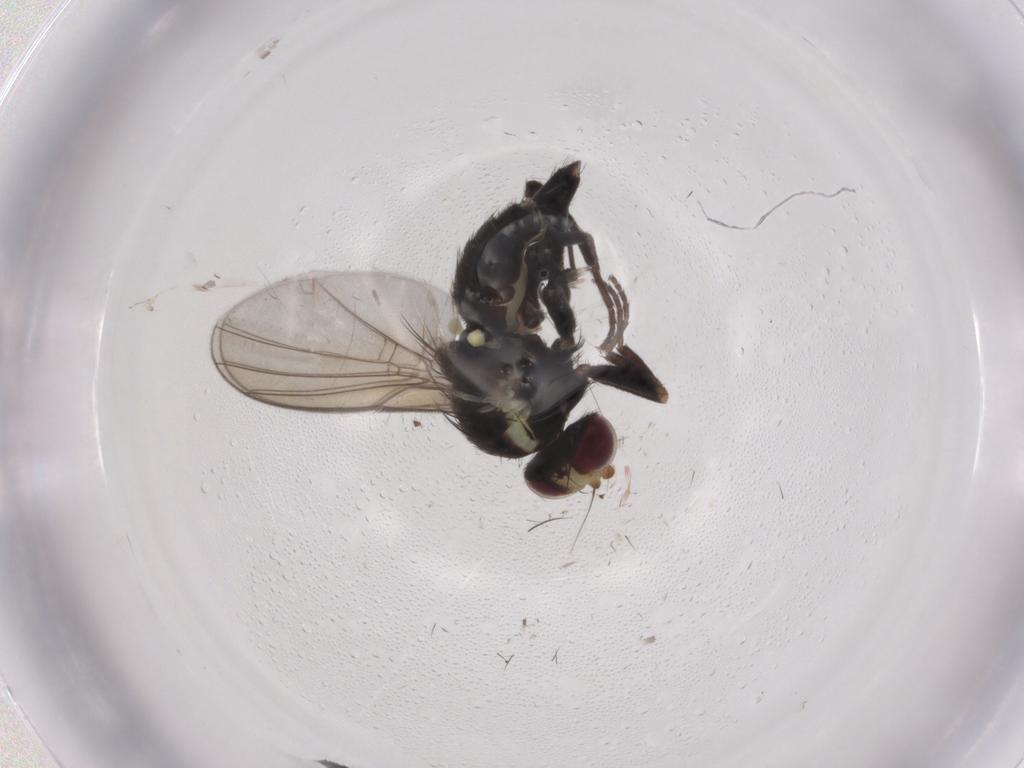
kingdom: Animalia
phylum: Arthropoda
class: Insecta
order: Diptera
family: Agromyzidae
